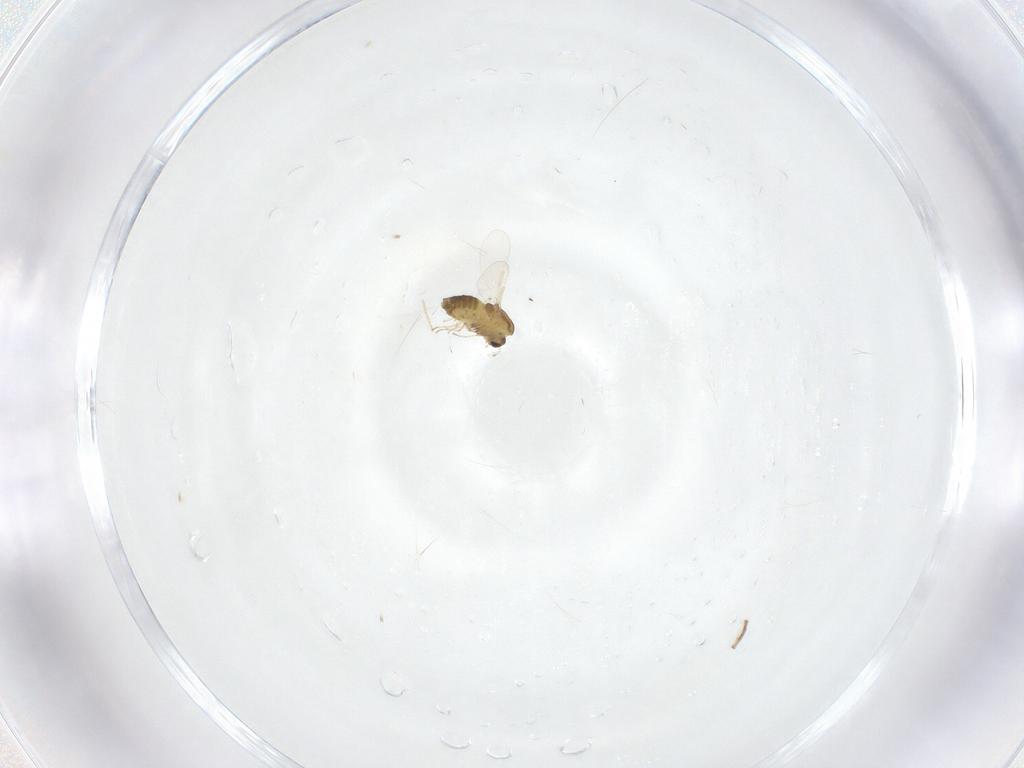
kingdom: Animalia
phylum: Arthropoda
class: Insecta
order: Diptera
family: Chironomidae
